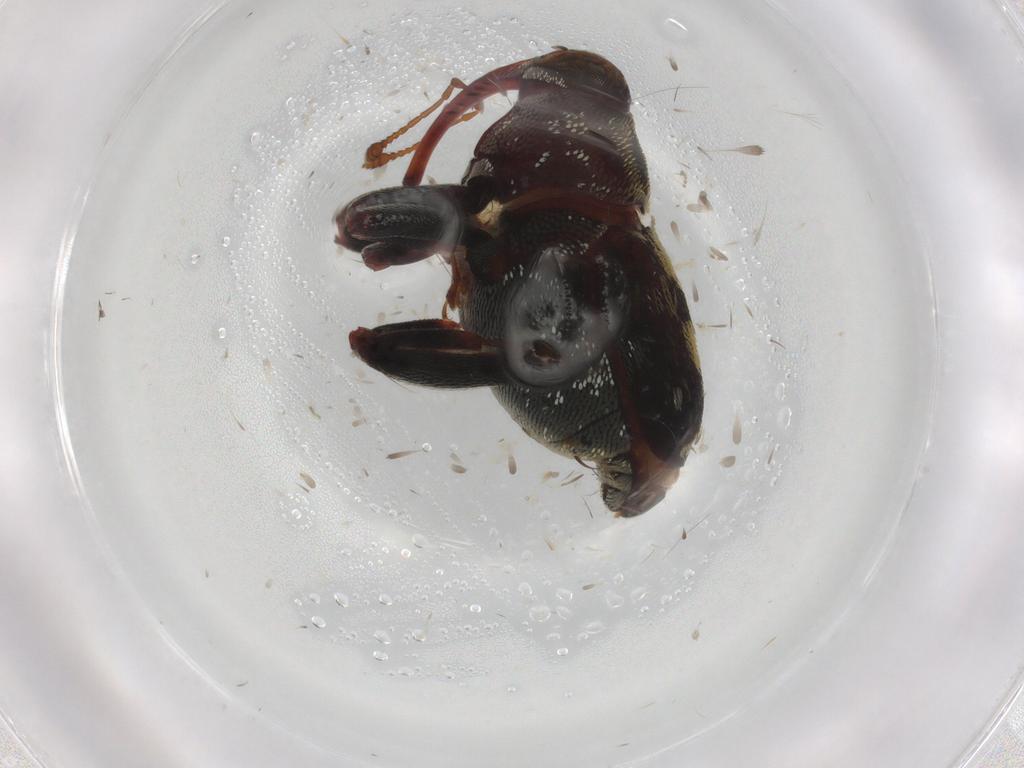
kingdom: Animalia
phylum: Arthropoda
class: Insecta
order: Coleoptera
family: Curculionidae
